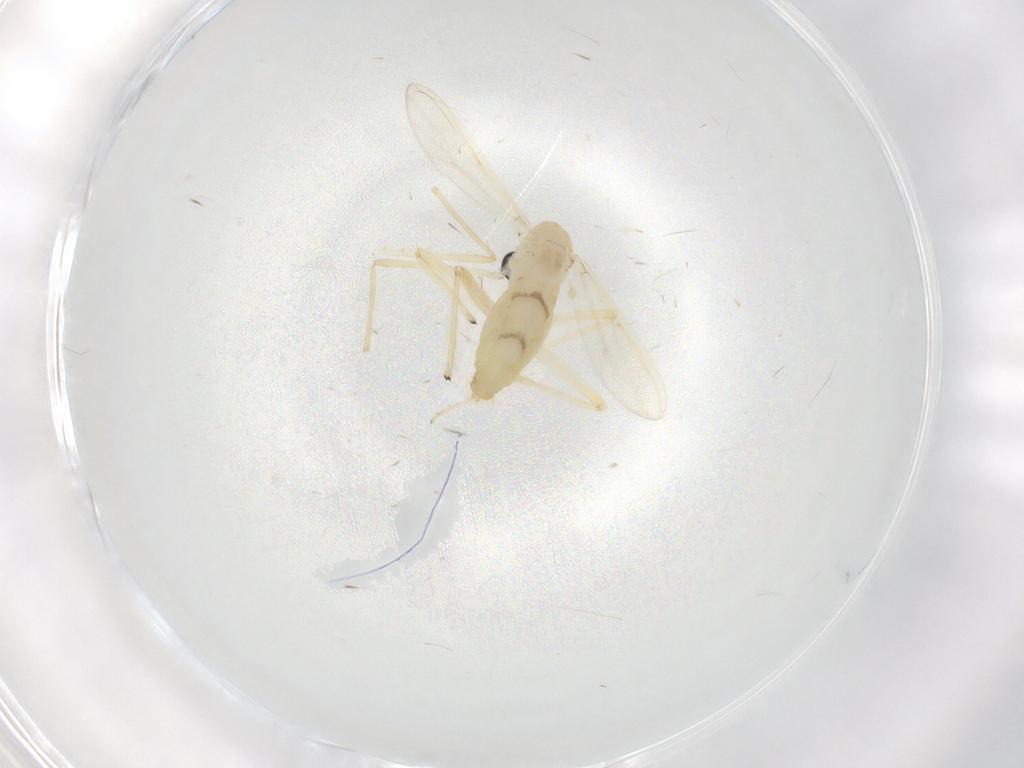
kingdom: Animalia
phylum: Arthropoda
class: Insecta
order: Diptera
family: Chironomidae
